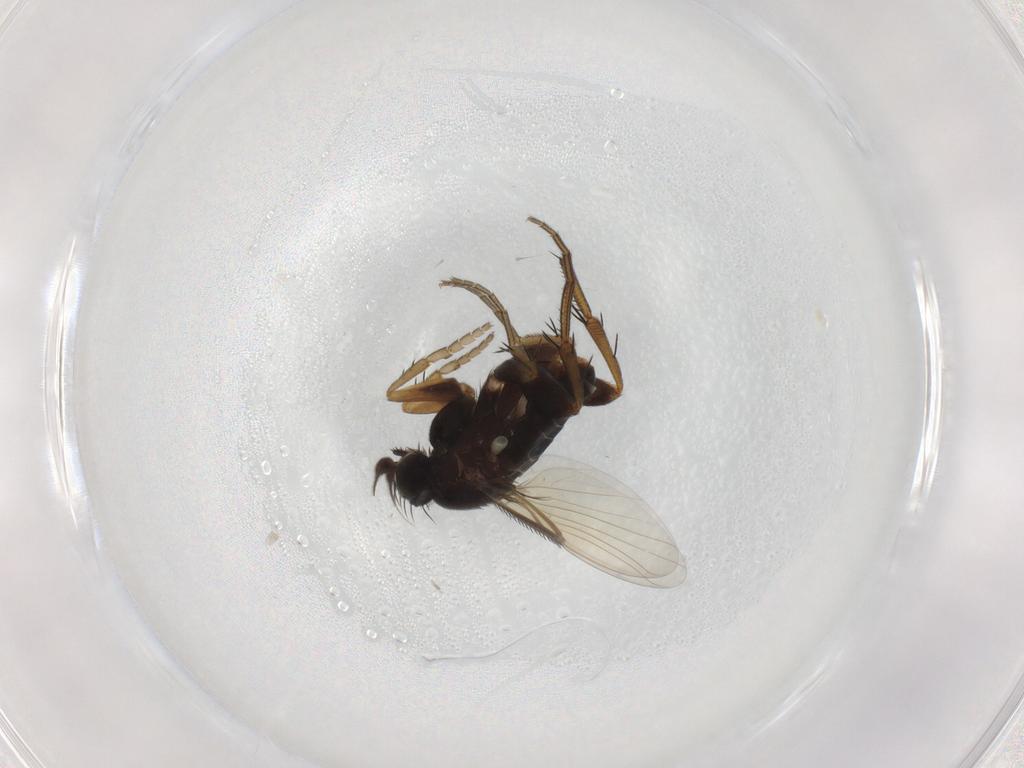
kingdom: Animalia
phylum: Arthropoda
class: Insecta
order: Diptera
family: Phoridae
